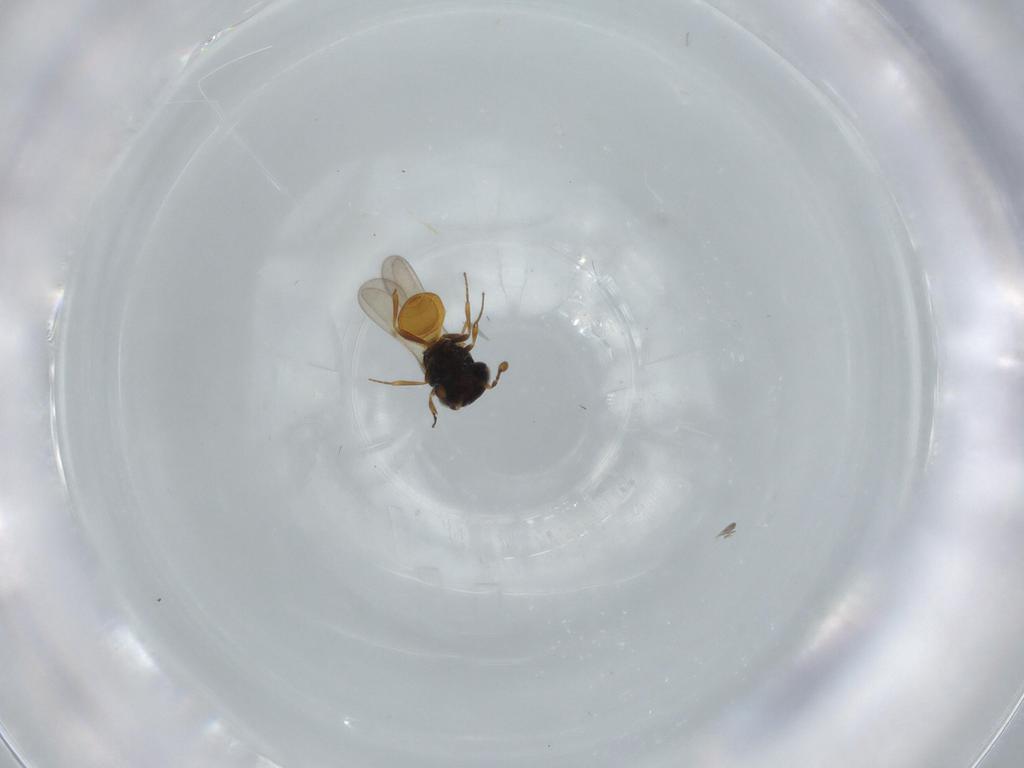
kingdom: Animalia
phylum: Arthropoda
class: Insecta
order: Hymenoptera
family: Scelionidae
